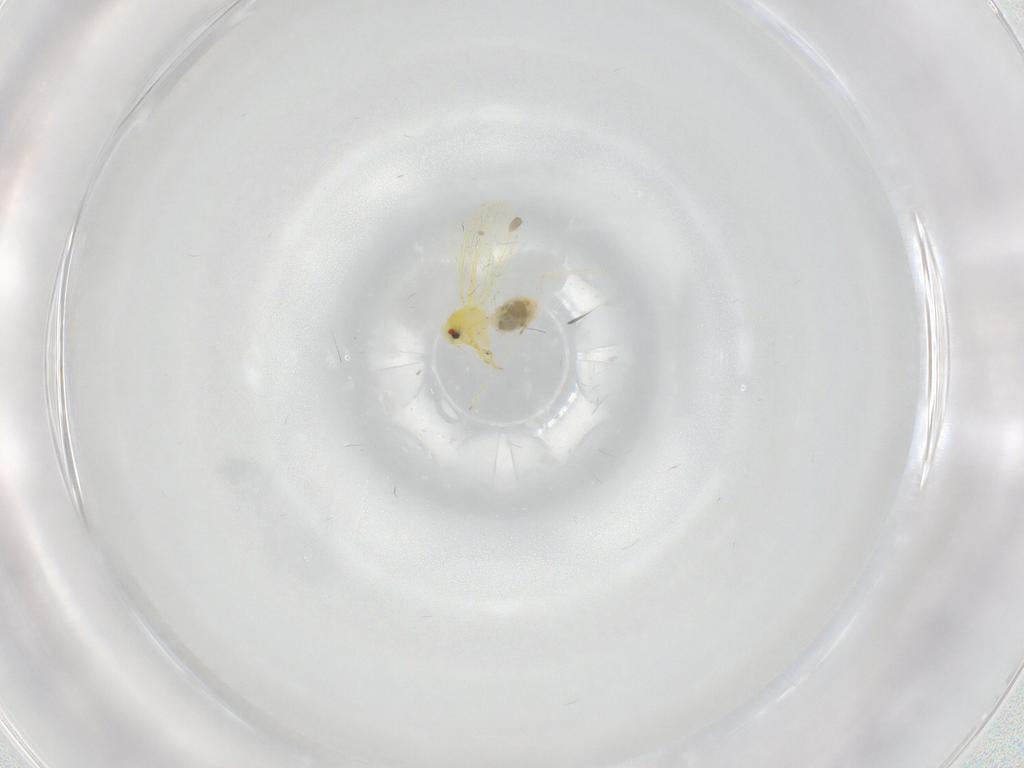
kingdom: Animalia
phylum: Arthropoda
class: Insecta
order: Hemiptera
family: Aleyrodidae
